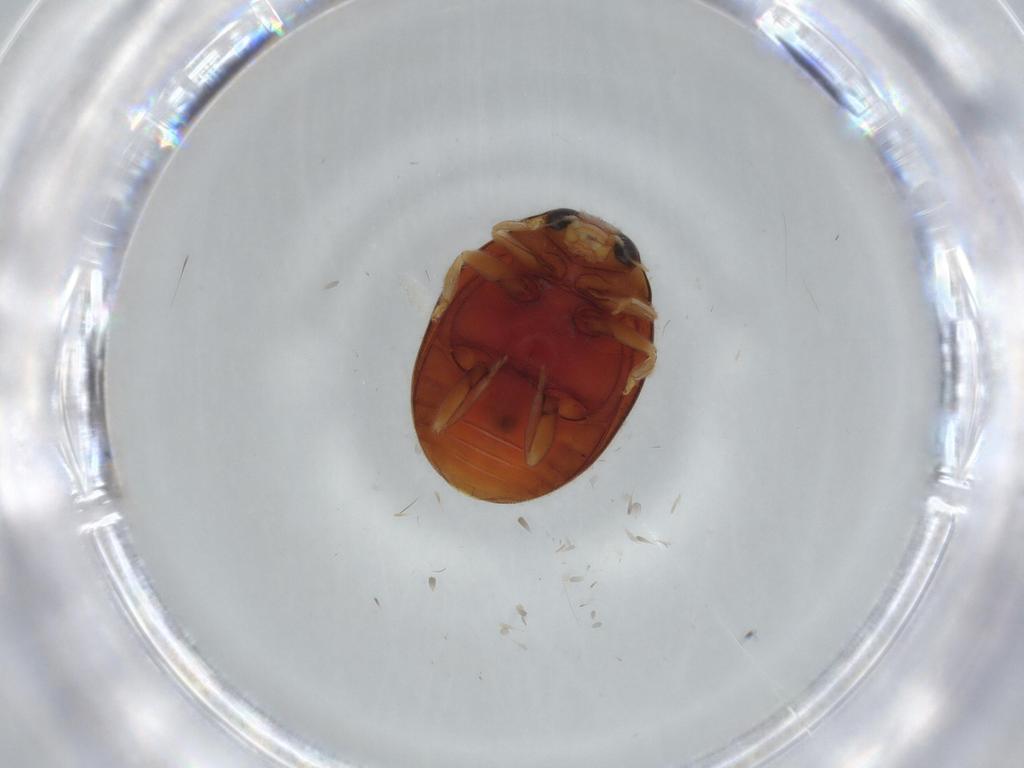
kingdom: Animalia
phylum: Arthropoda
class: Insecta
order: Coleoptera
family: Coccinellidae
